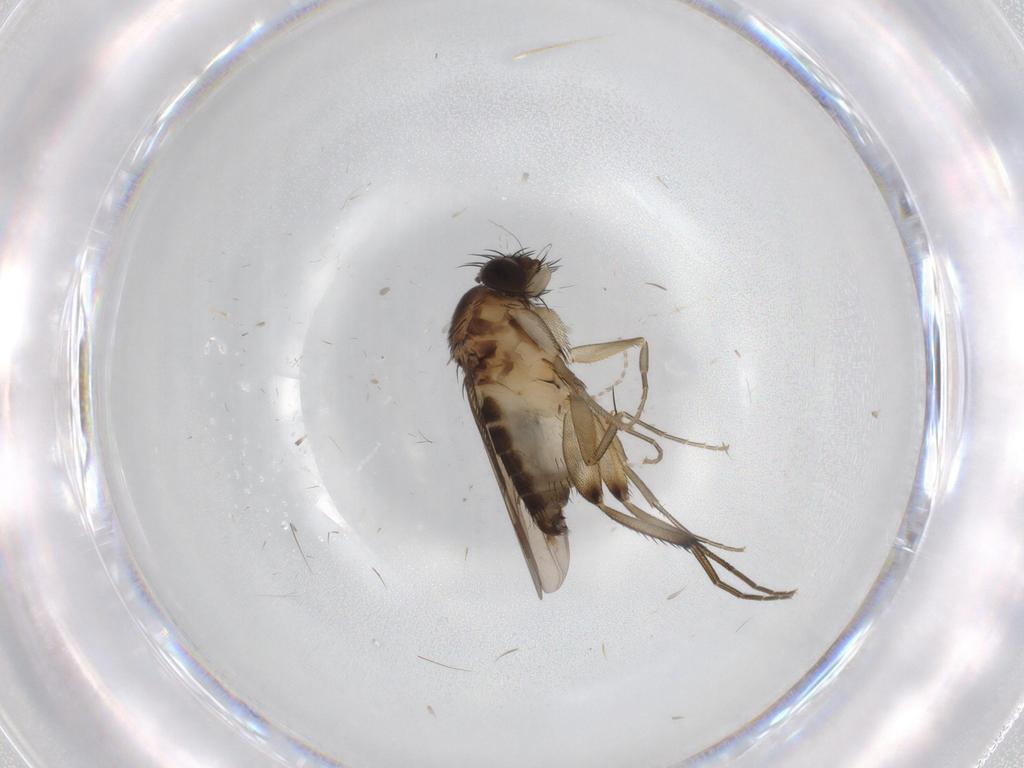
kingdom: Animalia
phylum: Arthropoda
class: Insecta
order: Diptera
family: Phoridae
